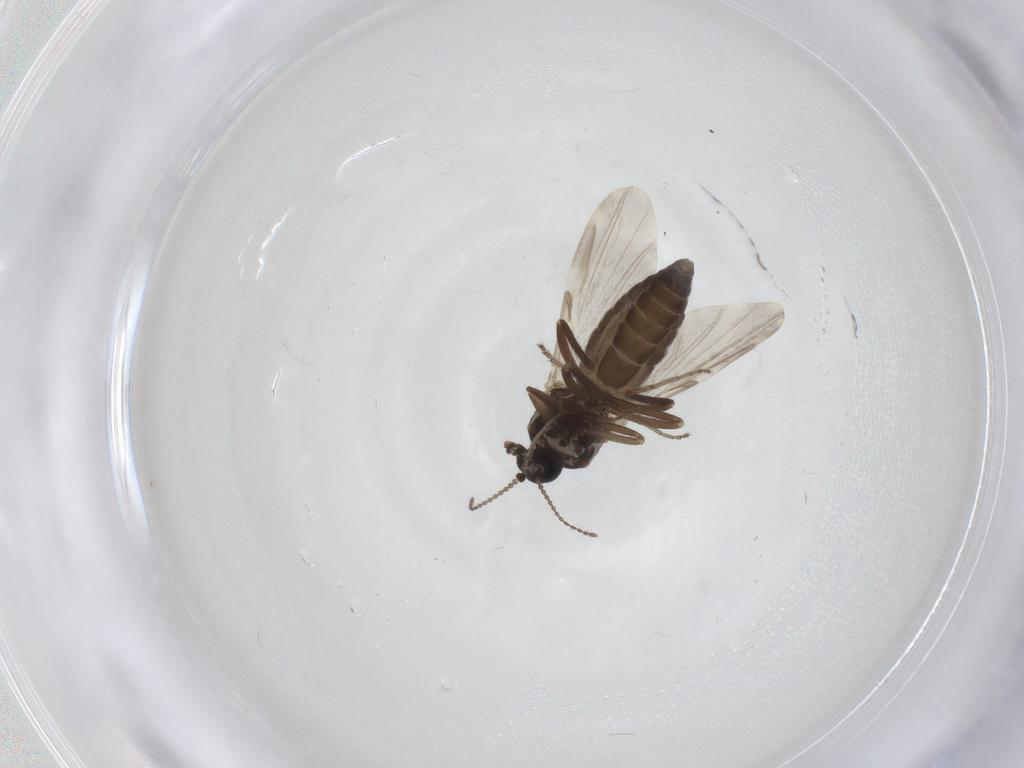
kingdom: Animalia
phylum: Arthropoda
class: Insecta
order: Diptera
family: Ceratopogonidae
